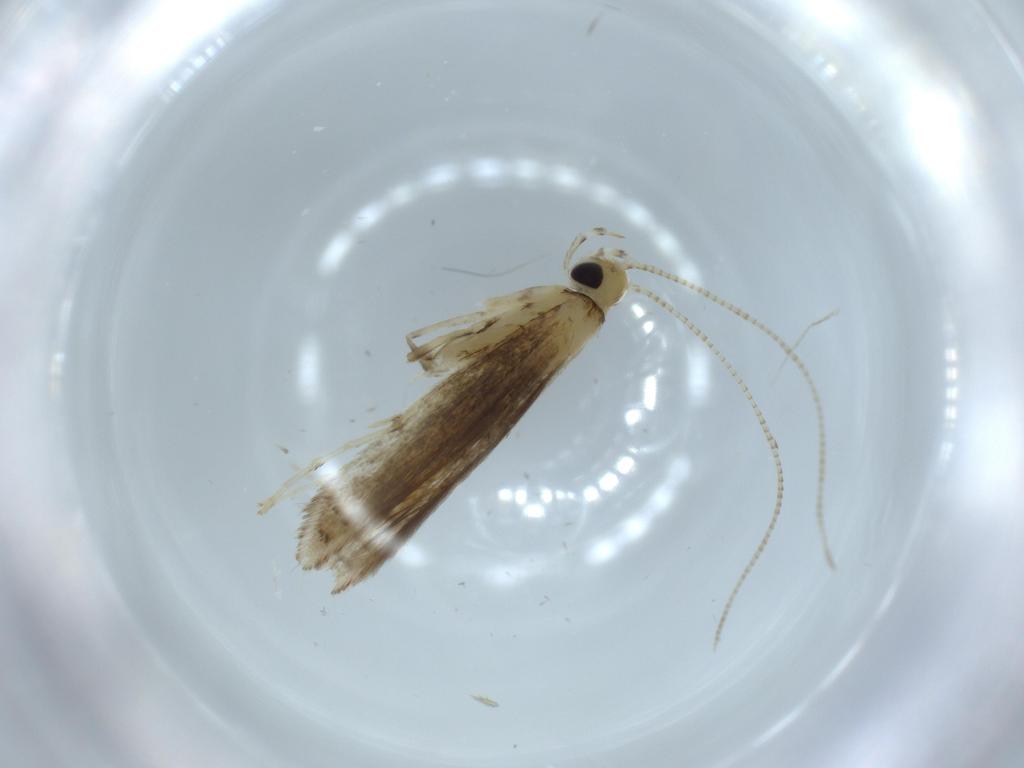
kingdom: Animalia
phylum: Arthropoda
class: Insecta
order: Lepidoptera
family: Gracillariidae
